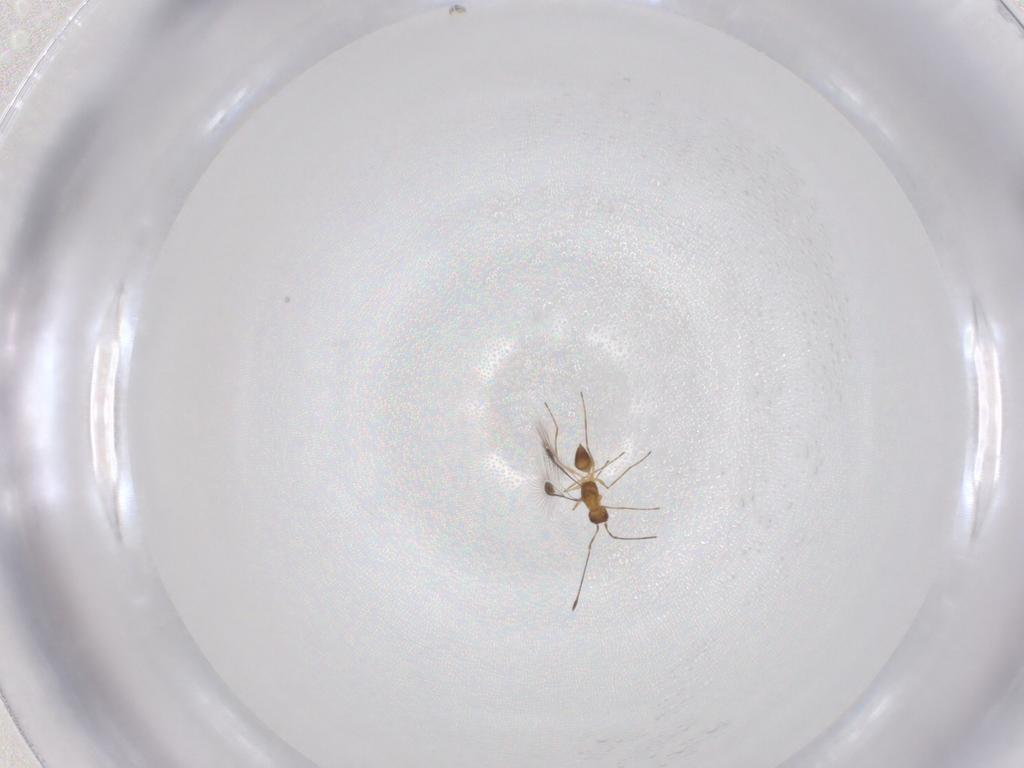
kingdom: Animalia
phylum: Arthropoda
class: Insecta
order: Hymenoptera
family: Mymaridae
